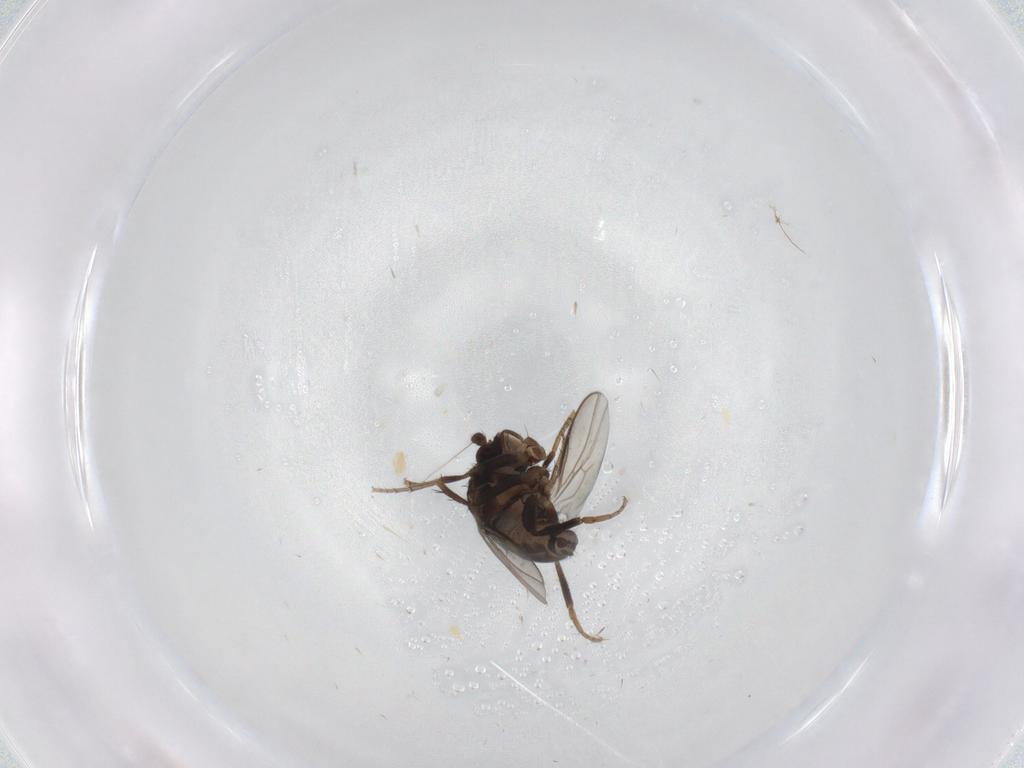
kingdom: Animalia
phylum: Arthropoda
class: Insecta
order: Diptera
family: Sphaeroceridae
